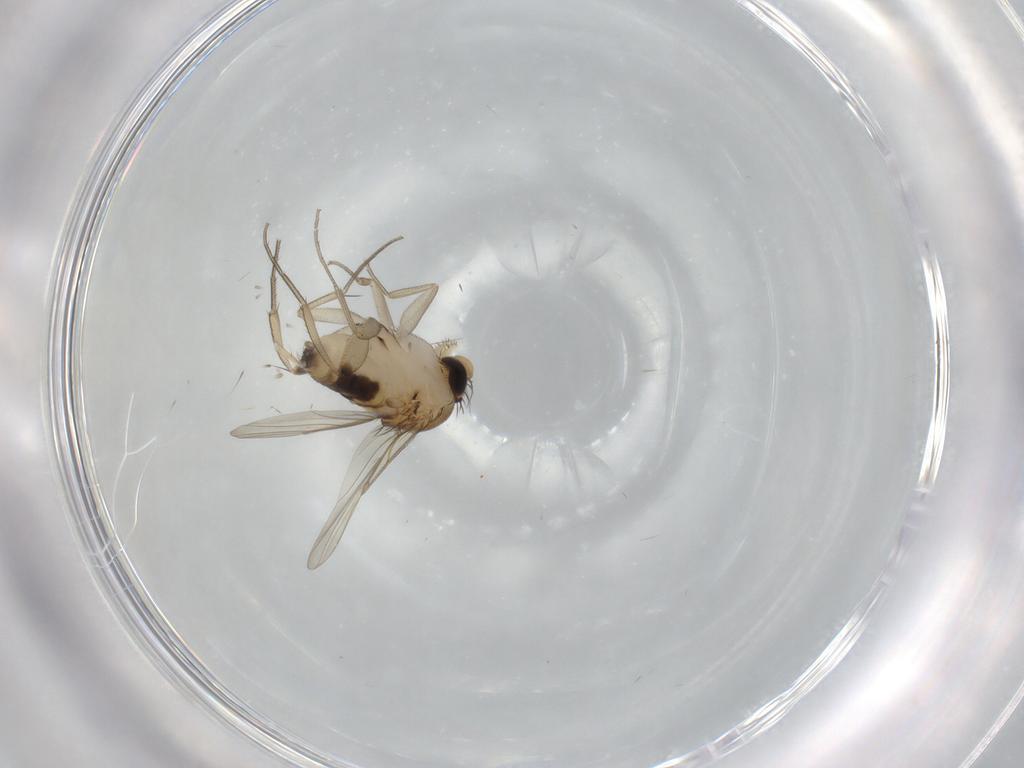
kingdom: Animalia
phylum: Arthropoda
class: Insecta
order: Diptera
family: Phoridae
